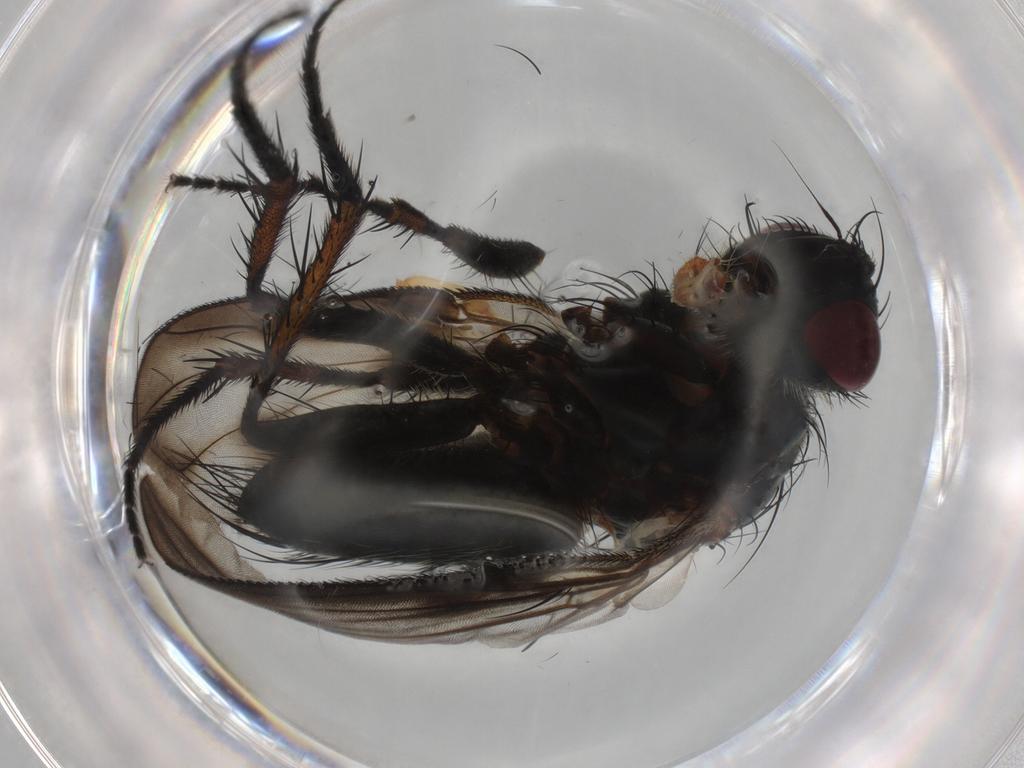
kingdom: Animalia
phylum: Arthropoda
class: Insecta
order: Diptera
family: Tachinidae
